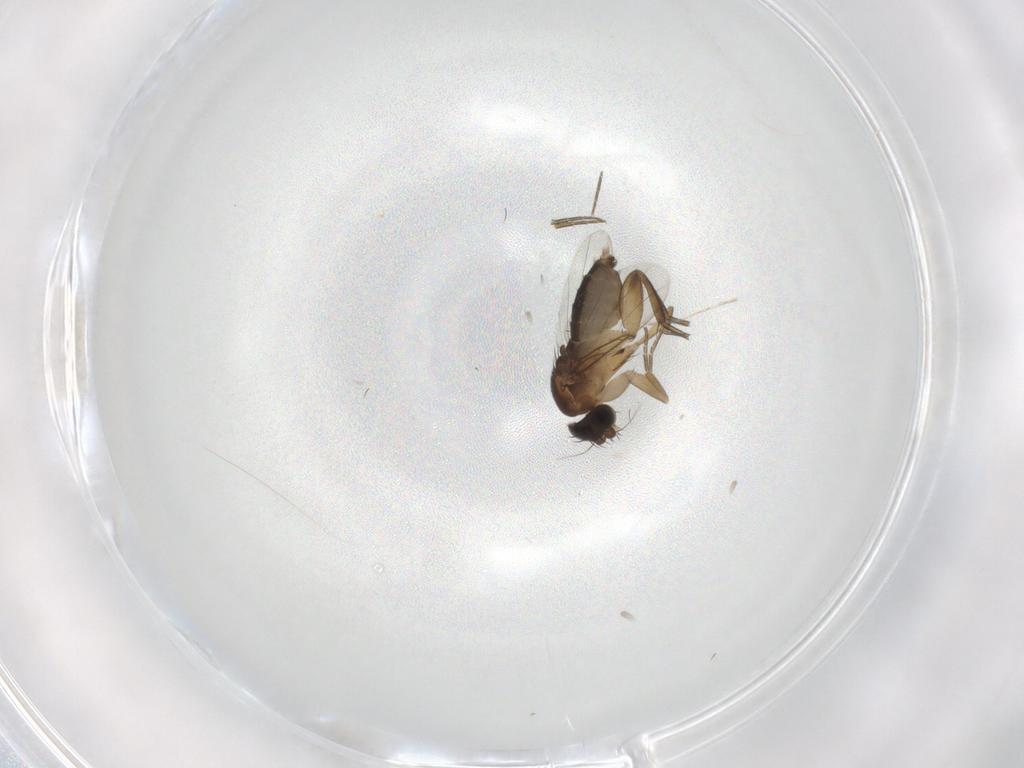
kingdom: Animalia
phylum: Arthropoda
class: Insecta
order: Diptera
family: Phoridae
